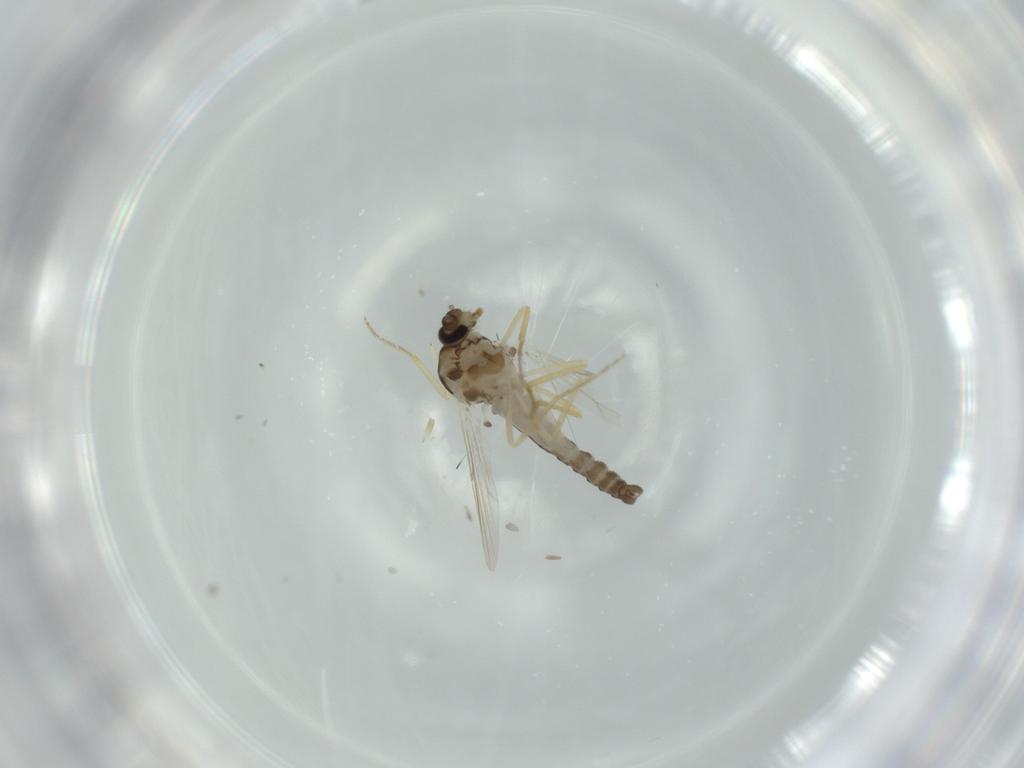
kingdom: Animalia
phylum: Arthropoda
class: Insecta
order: Diptera
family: Ceratopogonidae
